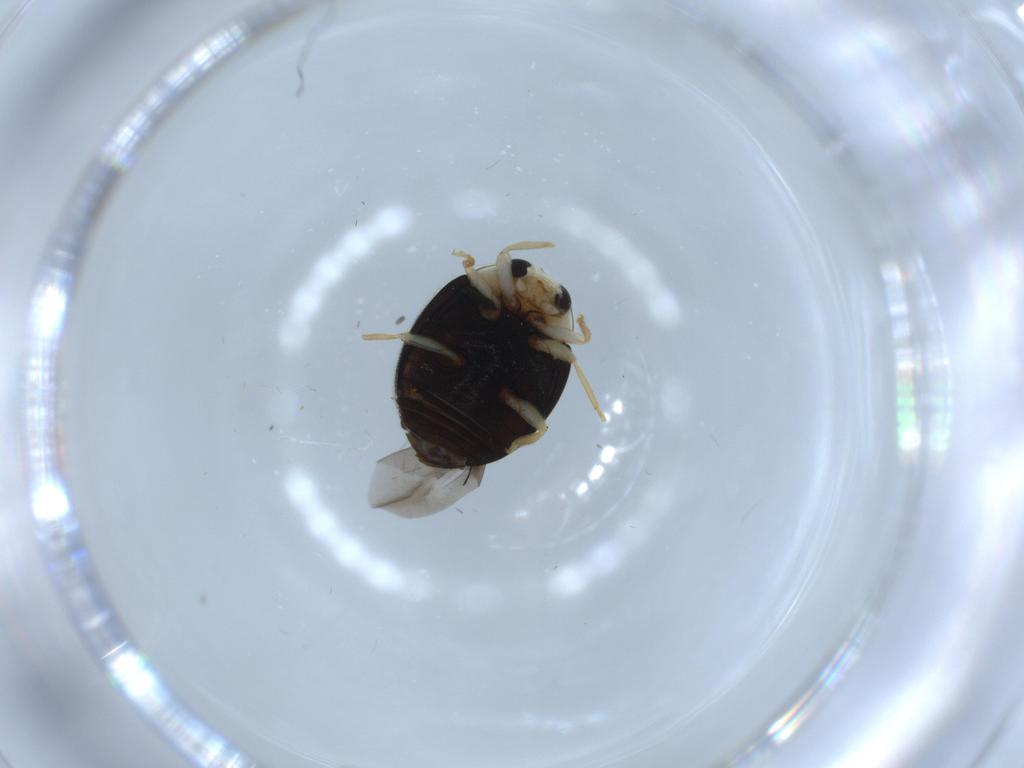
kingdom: Animalia
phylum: Arthropoda
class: Insecta
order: Coleoptera
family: Coccinellidae
